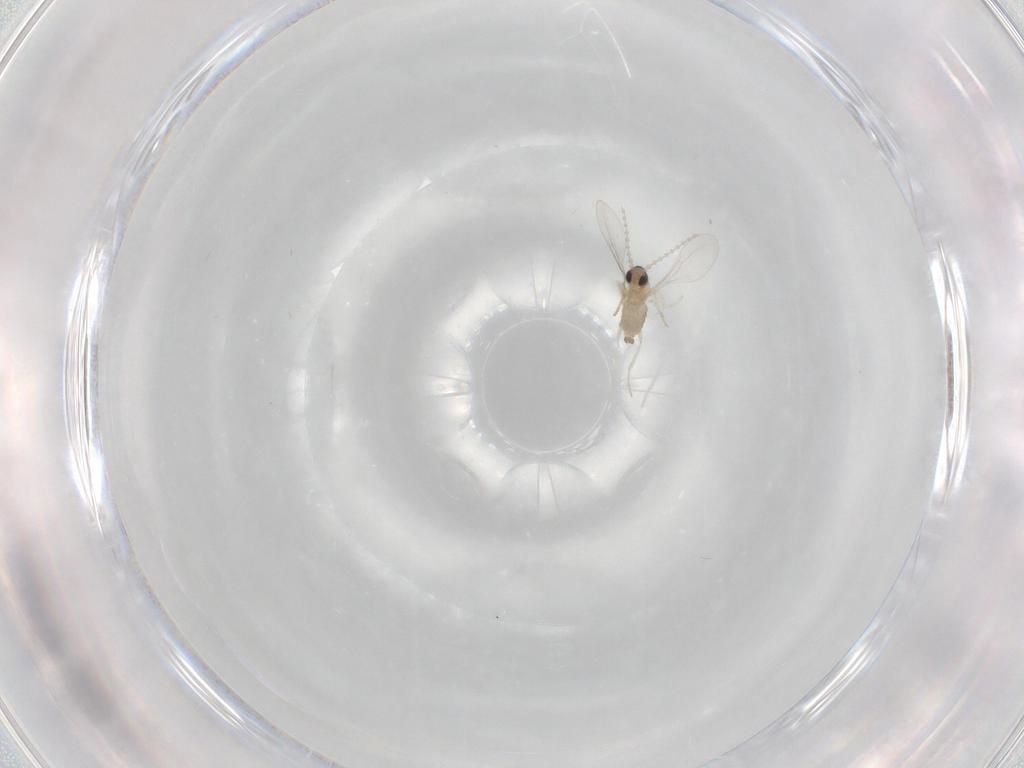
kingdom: Animalia
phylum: Arthropoda
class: Insecta
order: Diptera
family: Cecidomyiidae
